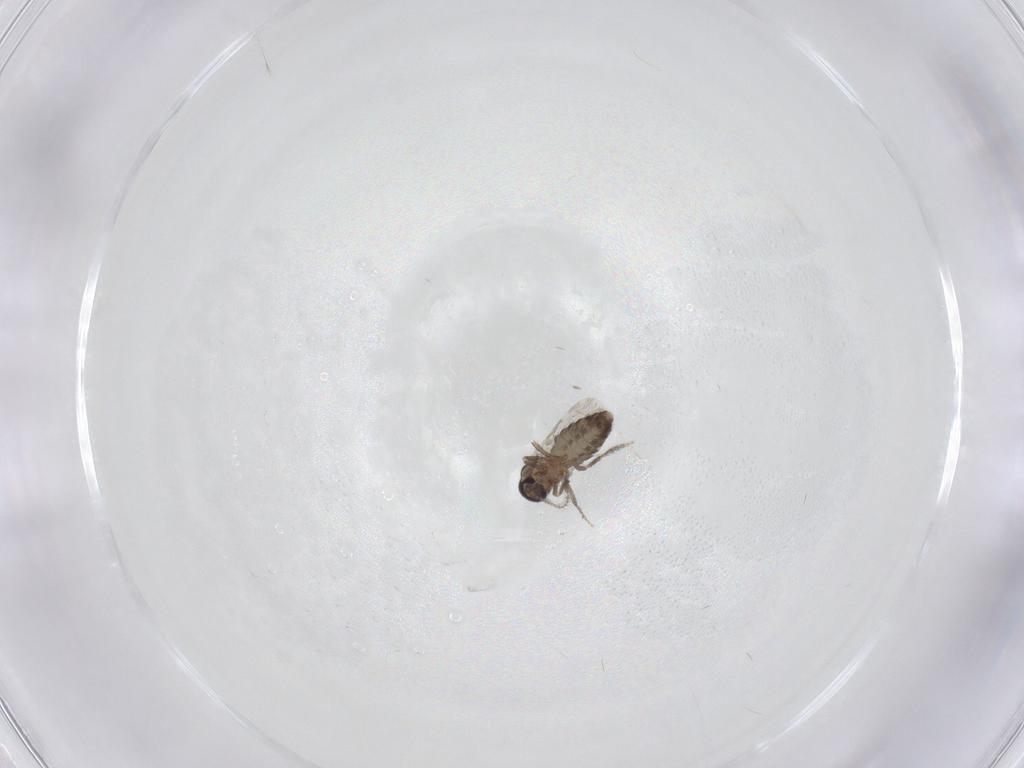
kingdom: Animalia
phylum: Arthropoda
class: Insecta
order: Diptera
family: Ceratopogonidae
